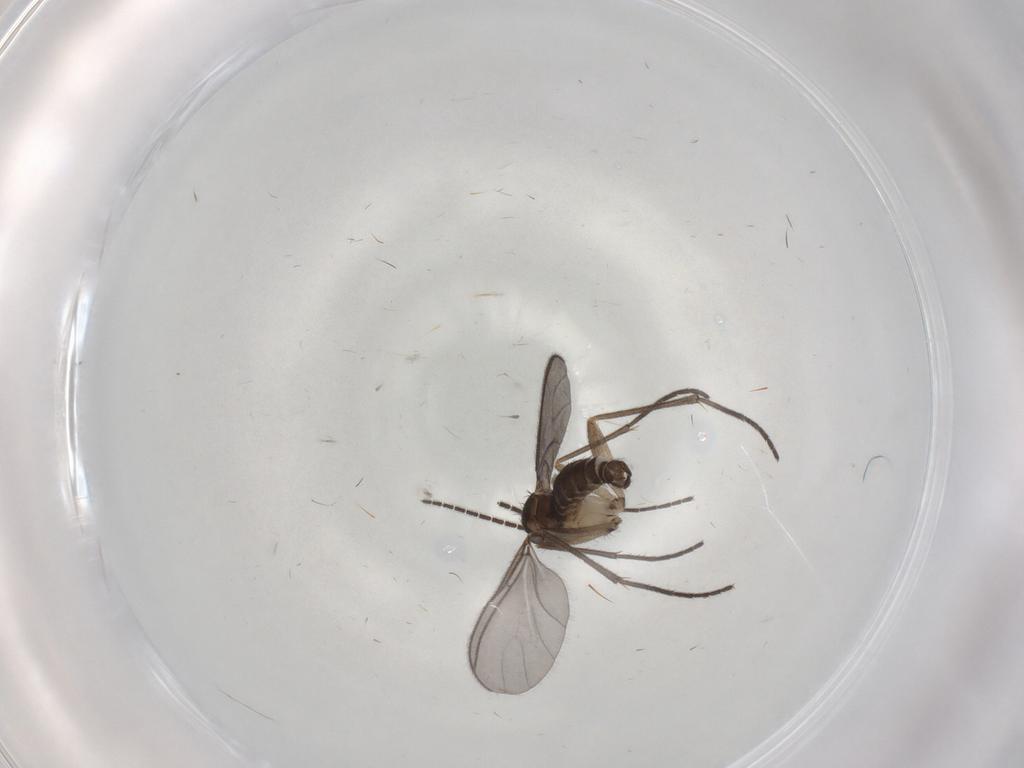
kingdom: Animalia
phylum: Arthropoda
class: Insecta
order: Diptera
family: Sciaridae
